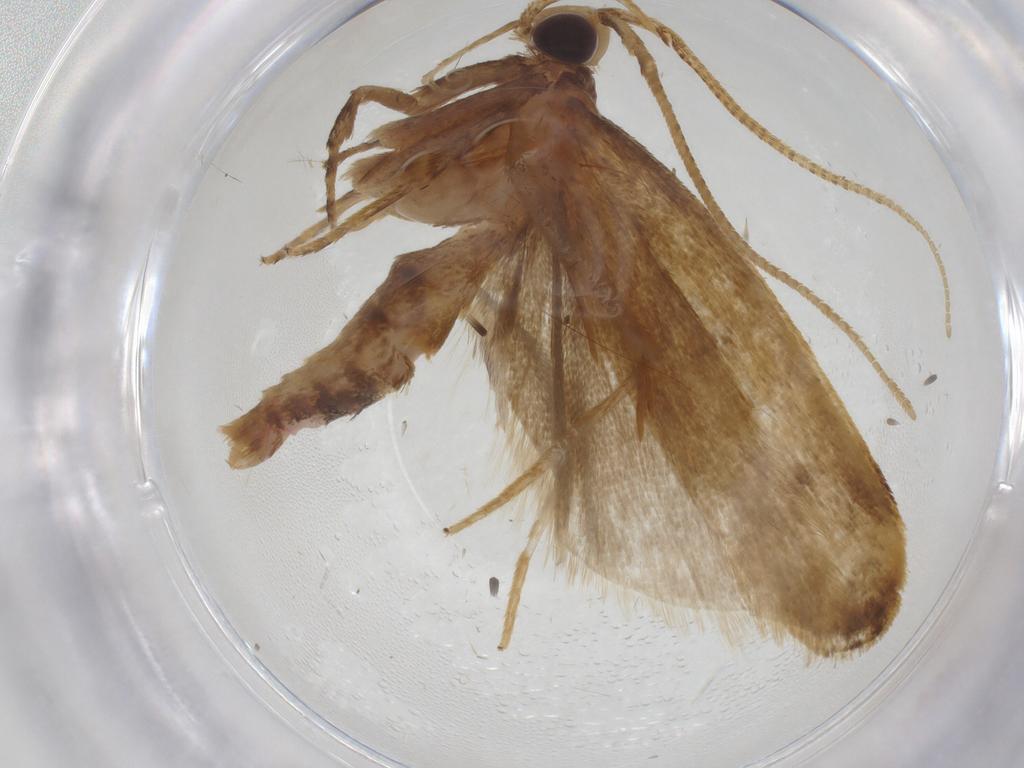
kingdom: Animalia
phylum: Arthropoda
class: Insecta
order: Lepidoptera
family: Autostichidae
